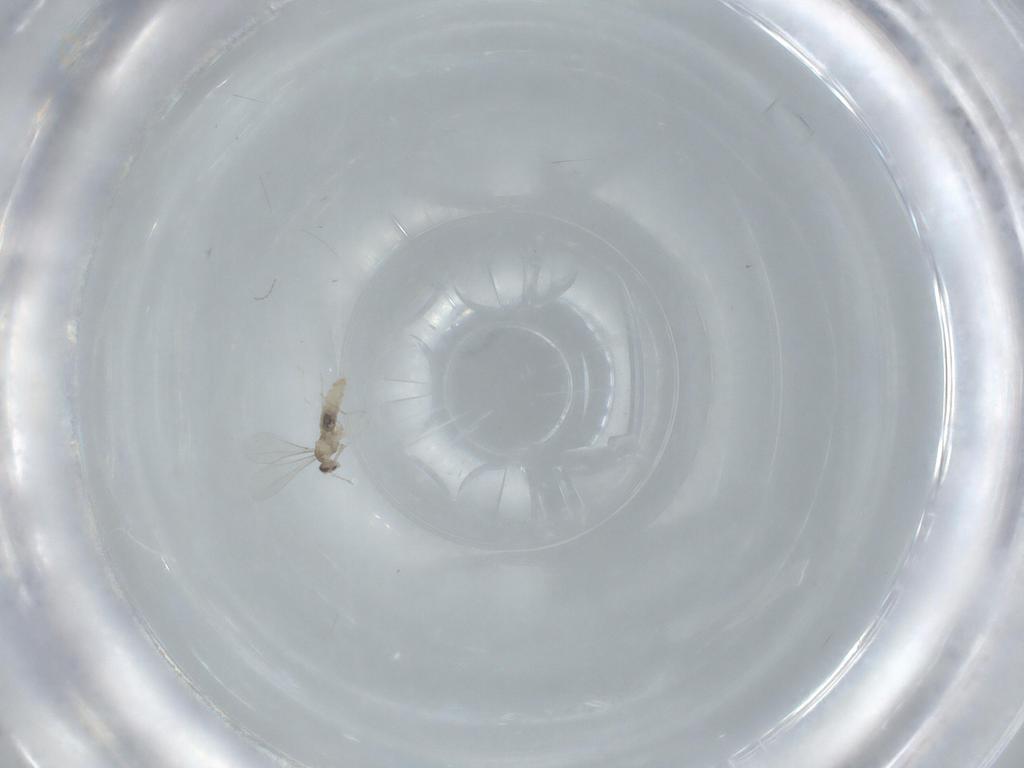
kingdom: Animalia
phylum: Arthropoda
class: Insecta
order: Diptera
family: Cecidomyiidae
